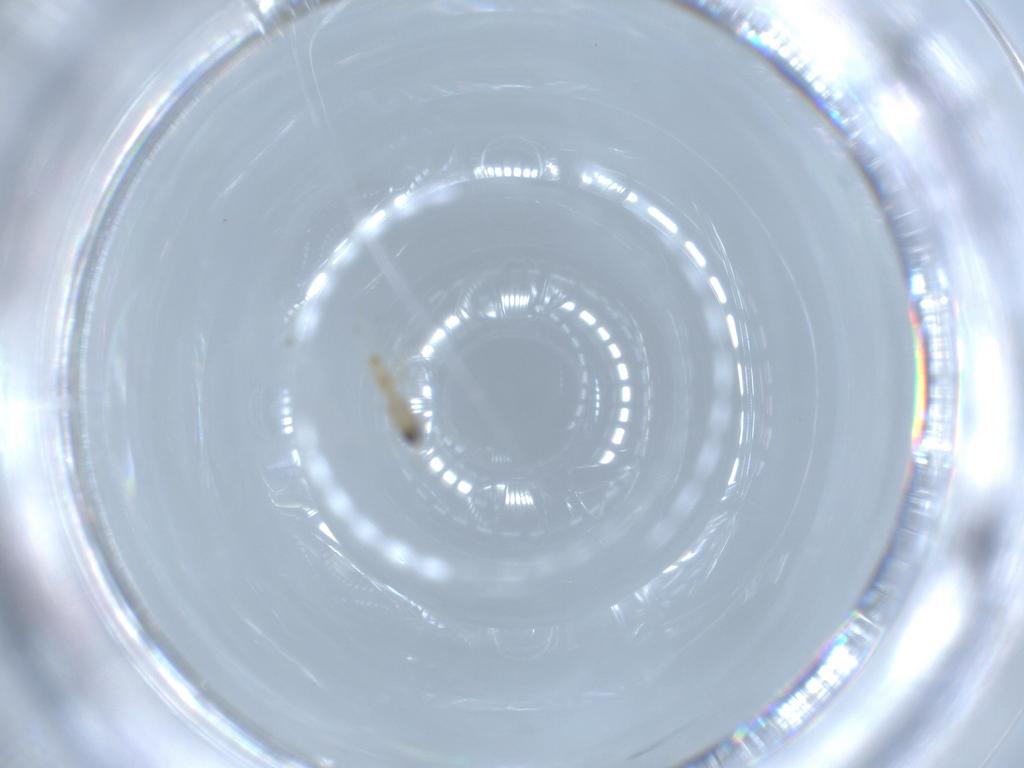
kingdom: Animalia
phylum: Arthropoda
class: Insecta
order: Diptera
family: Cecidomyiidae
